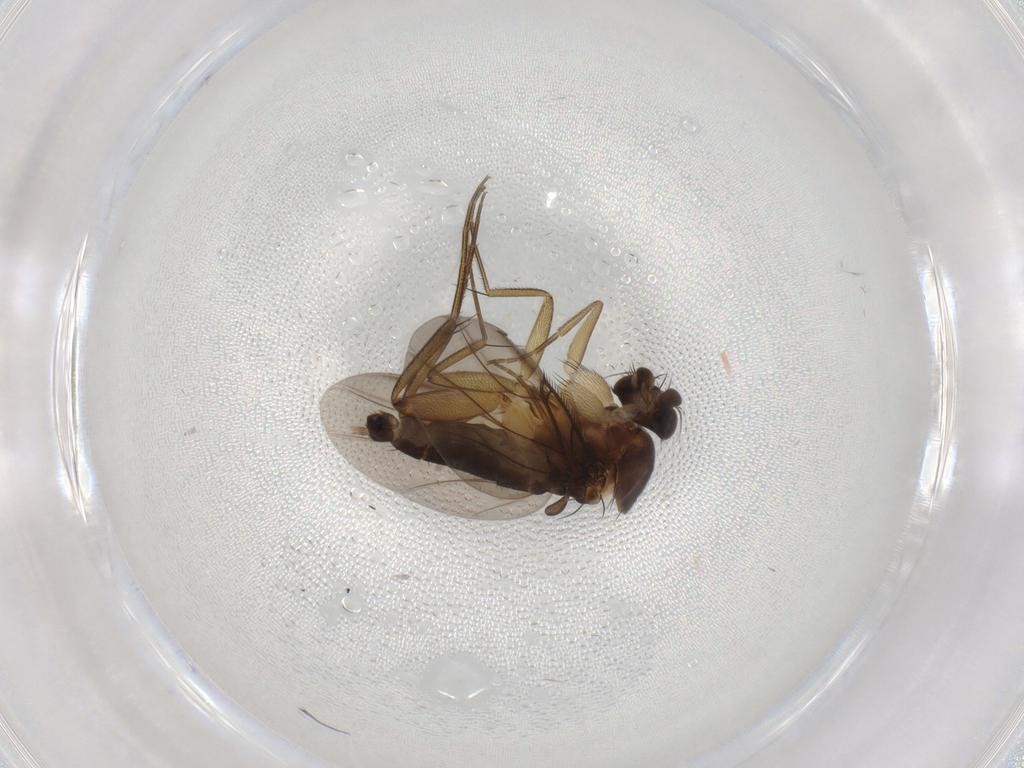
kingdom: Animalia
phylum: Arthropoda
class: Insecta
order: Diptera
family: Phoridae
